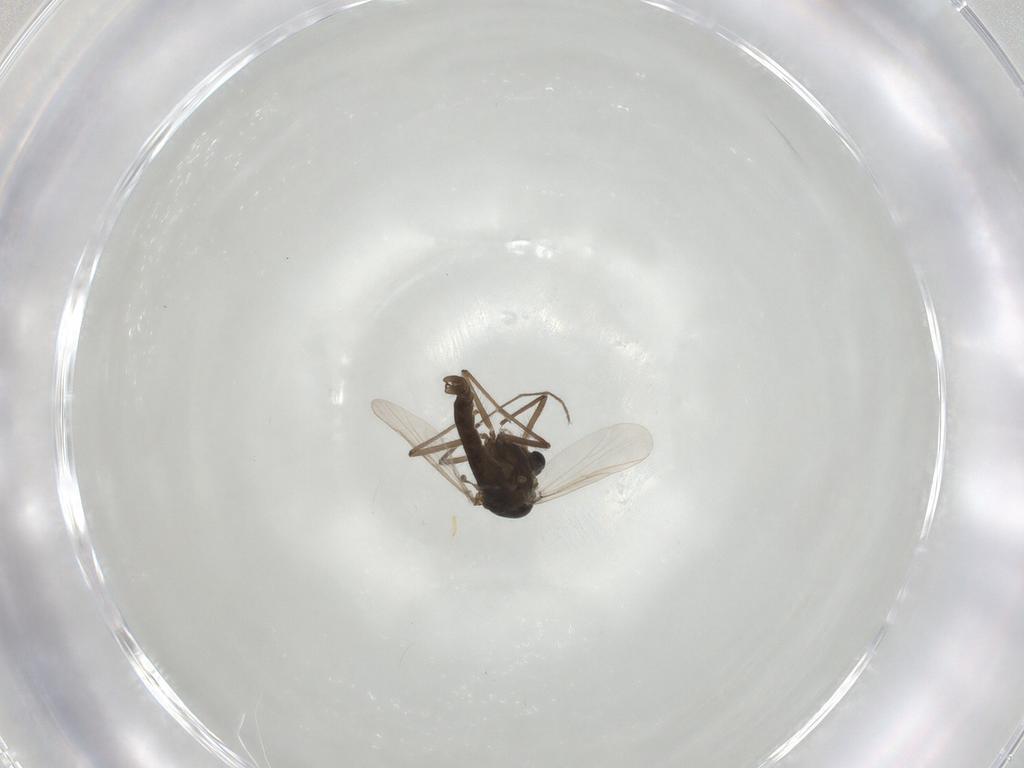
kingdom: Animalia
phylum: Arthropoda
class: Insecta
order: Diptera
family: Chironomidae
